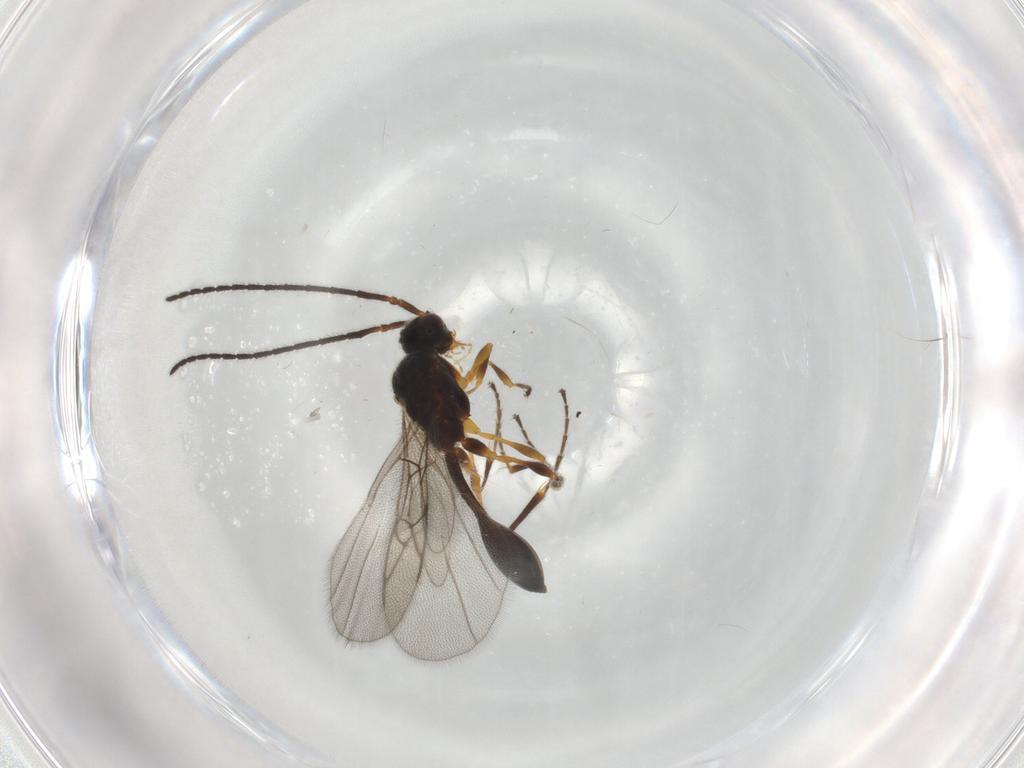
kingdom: Animalia
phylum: Arthropoda
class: Insecta
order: Hymenoptera
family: Diapriidae
